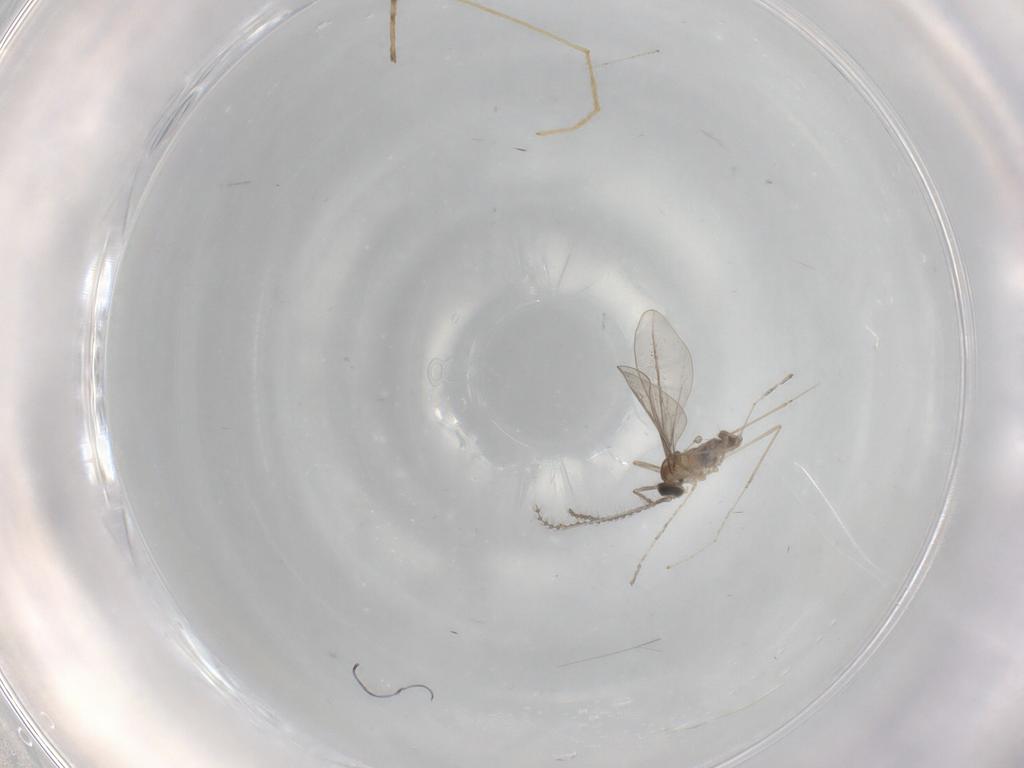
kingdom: Animalia
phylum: Arthropoda
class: Insecta
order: Diptera
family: Cecidomyiidae
